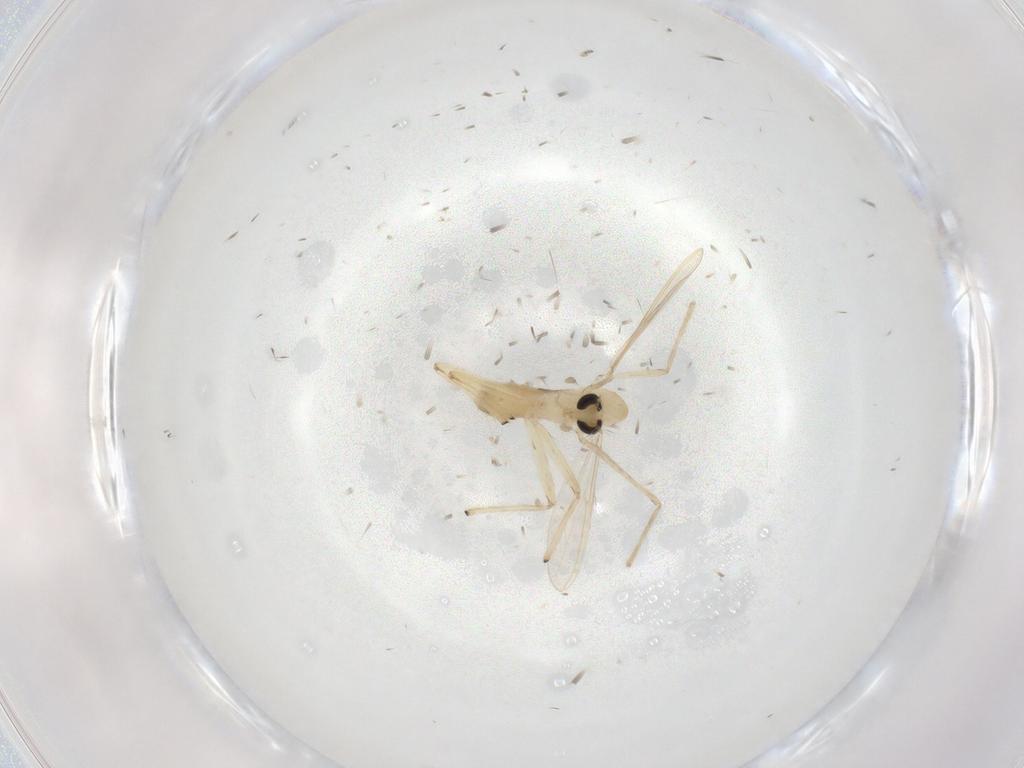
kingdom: Animalia
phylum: Arthropoda
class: Insecta
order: Diptera
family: Chironomidae
